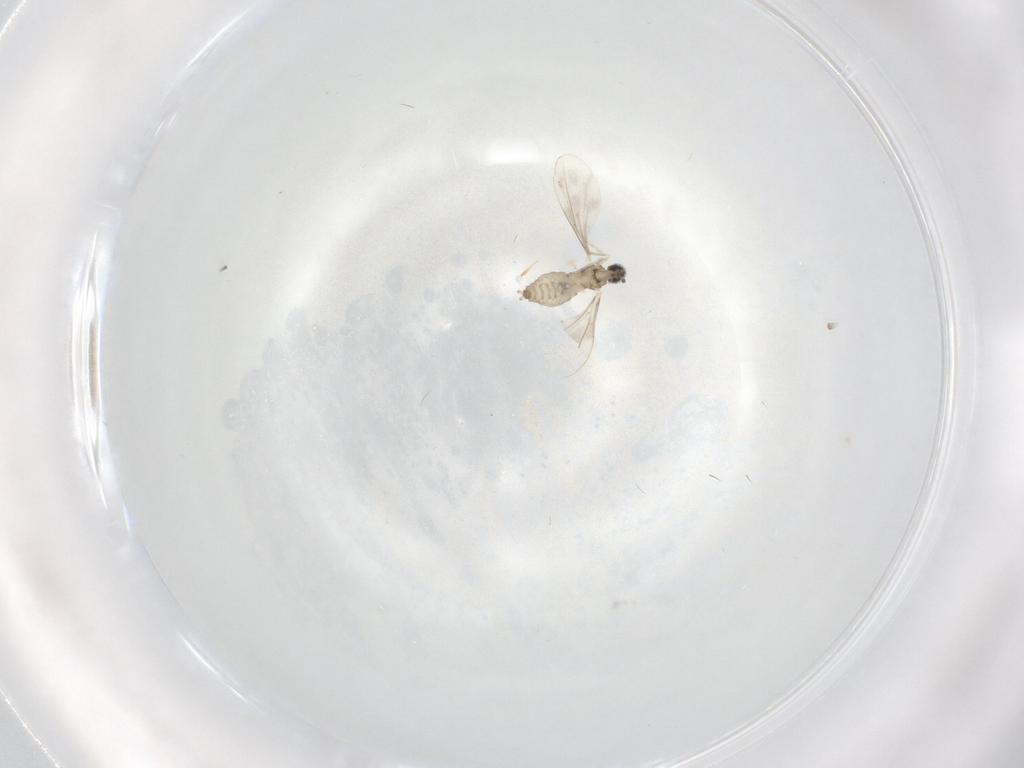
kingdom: Animalia
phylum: Arthropoda
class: Insecta
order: Diptera
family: Cecidomyiidae
